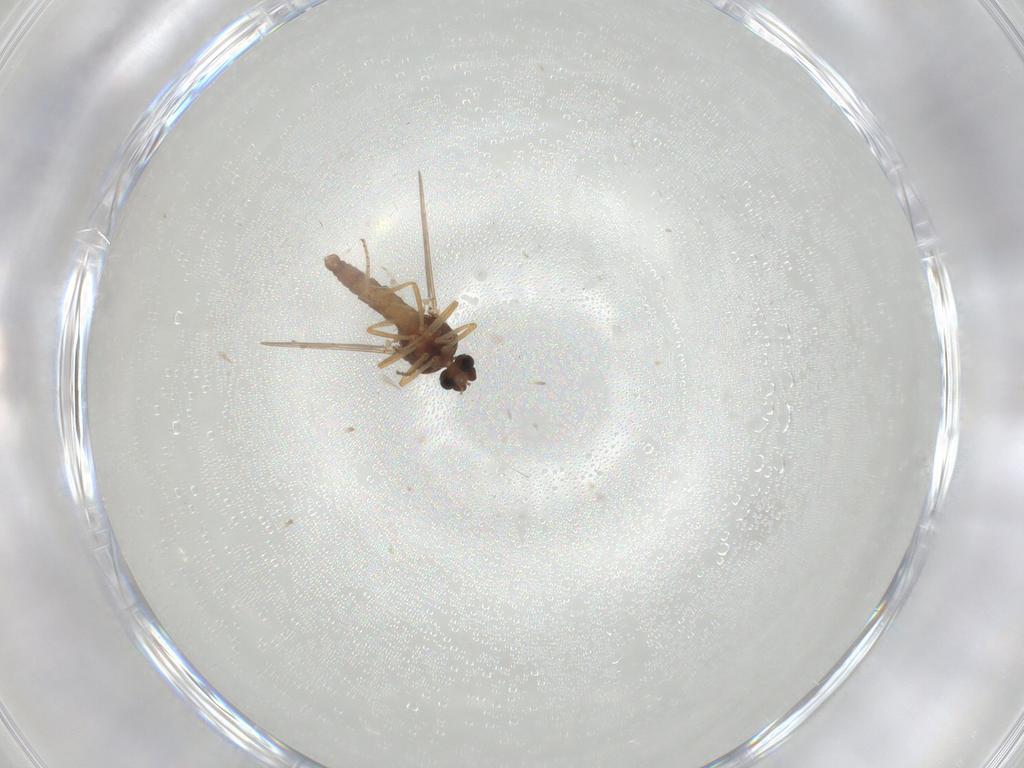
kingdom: Animalia
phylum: Arthropoda
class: Insecta
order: Diptera
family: Ceratopogonidae
